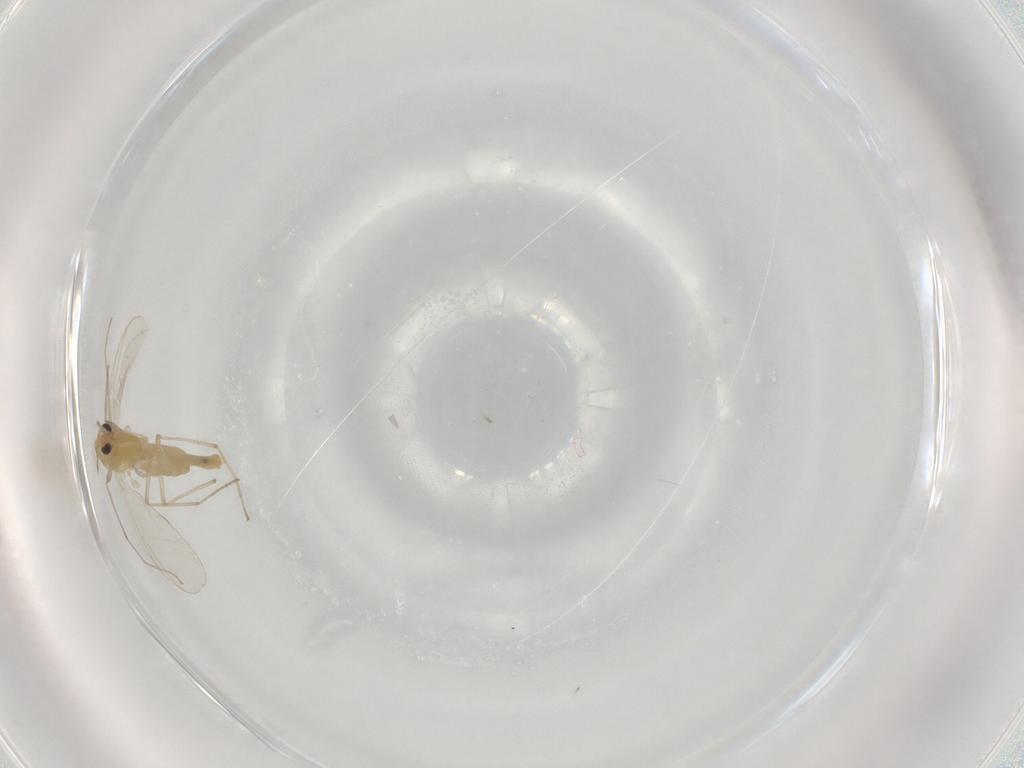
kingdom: Animalia
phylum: Arthropoda
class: Insecta
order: Diptera
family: Chironomidae
